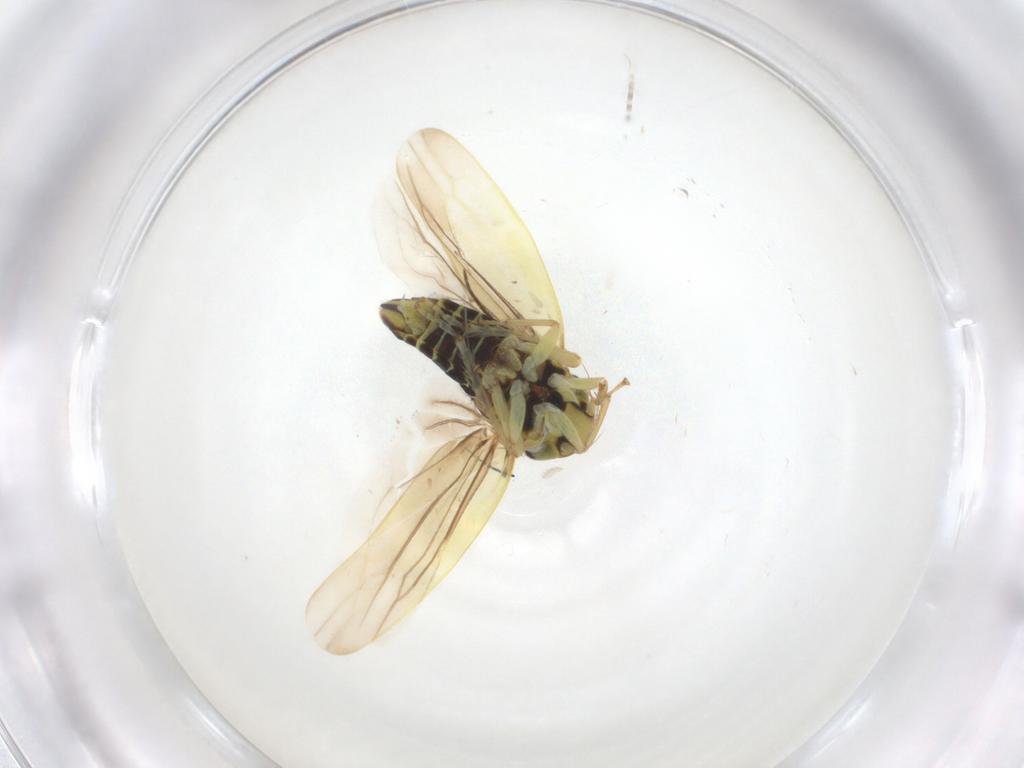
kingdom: Animalia
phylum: Arthropoda
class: Insecta
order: Hemiptera
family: Cicadellidae
